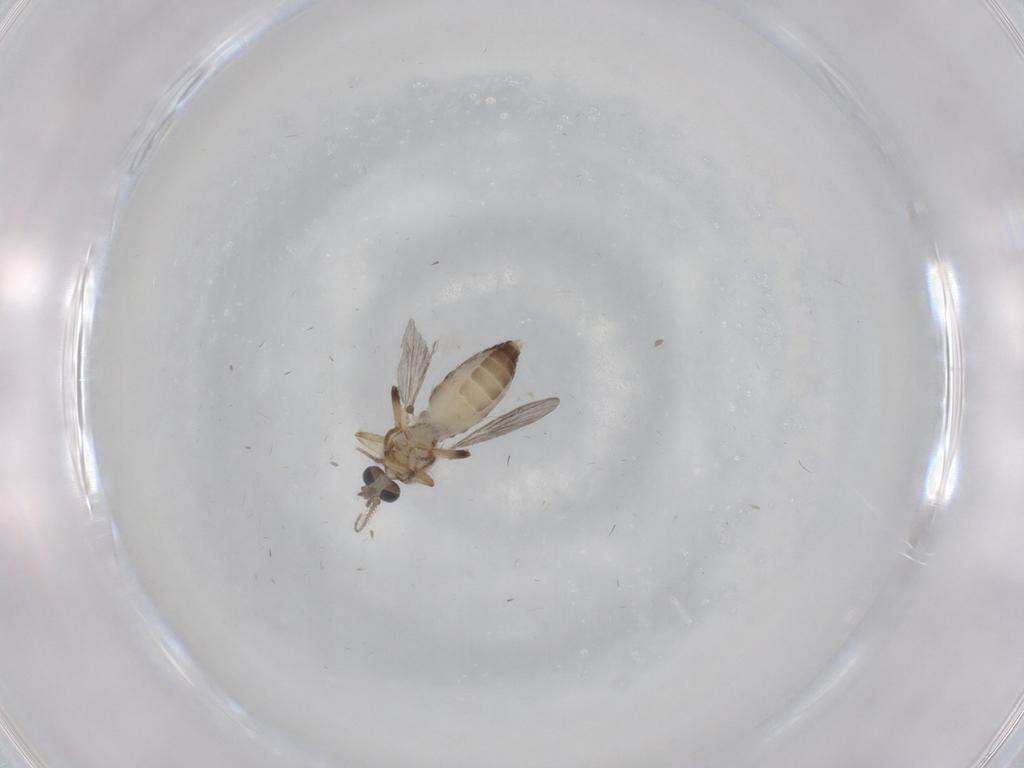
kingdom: Animalia
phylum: Arthropoda
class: Insecta
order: Diptera
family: Ceratopogonidae
